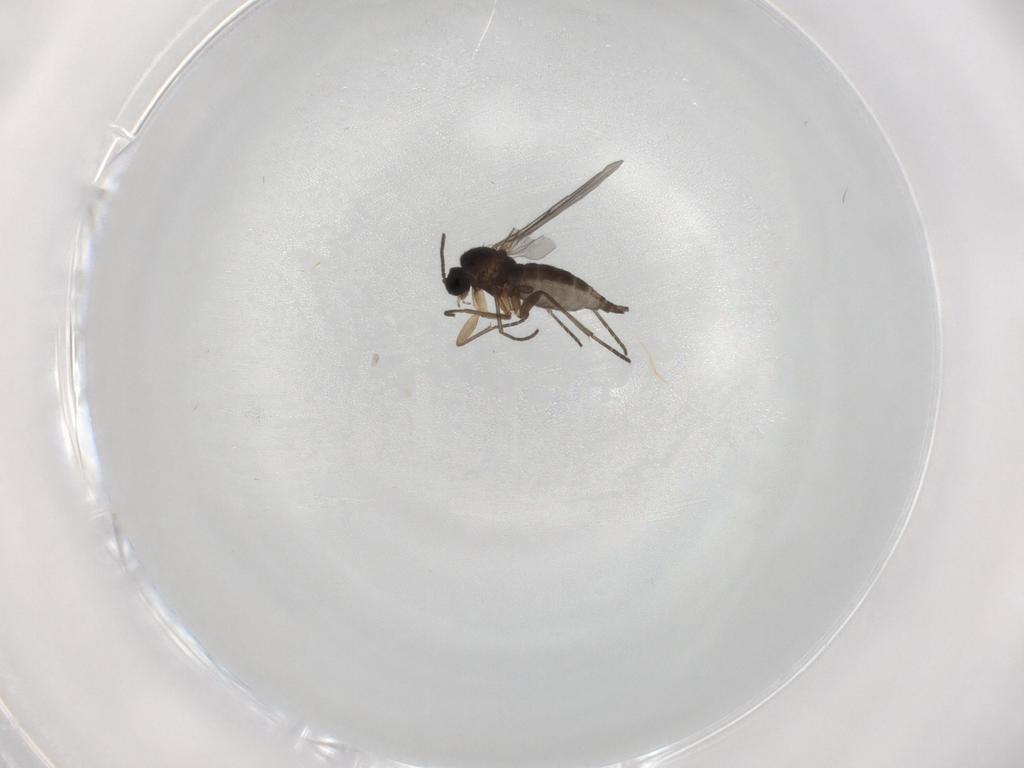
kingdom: Animalia
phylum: Arthropoda
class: Insecta
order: Diptera
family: Sciaridae
